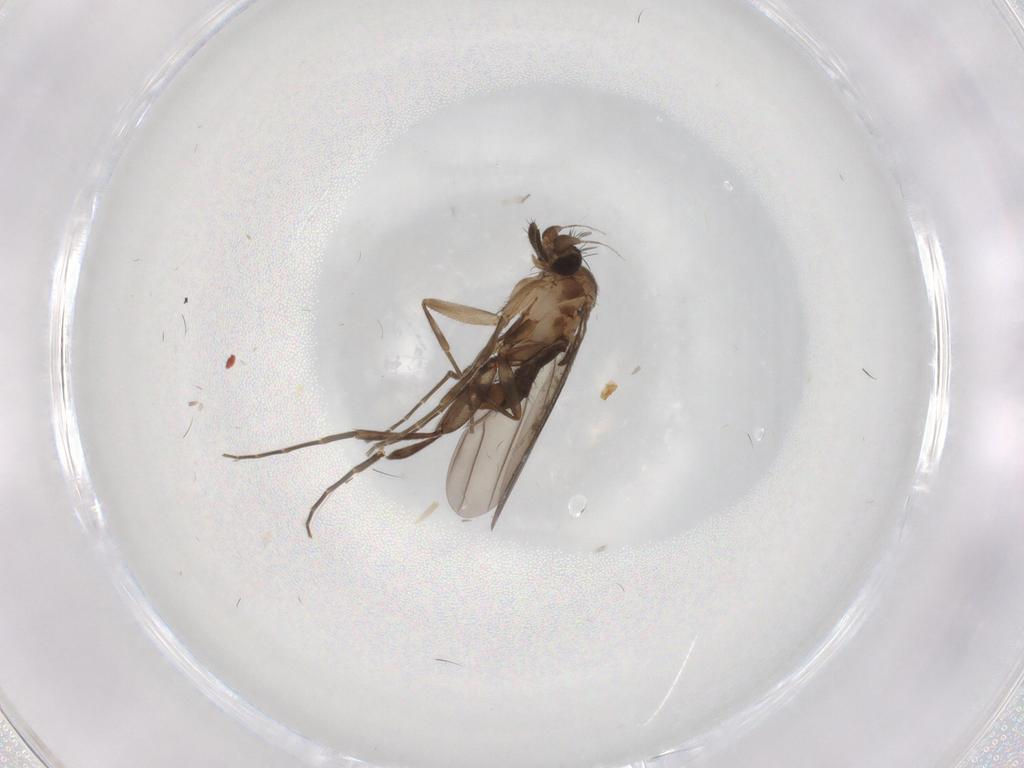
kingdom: Animalia
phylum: Arthropoda
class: Insecta
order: Diptera
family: Phoridae
